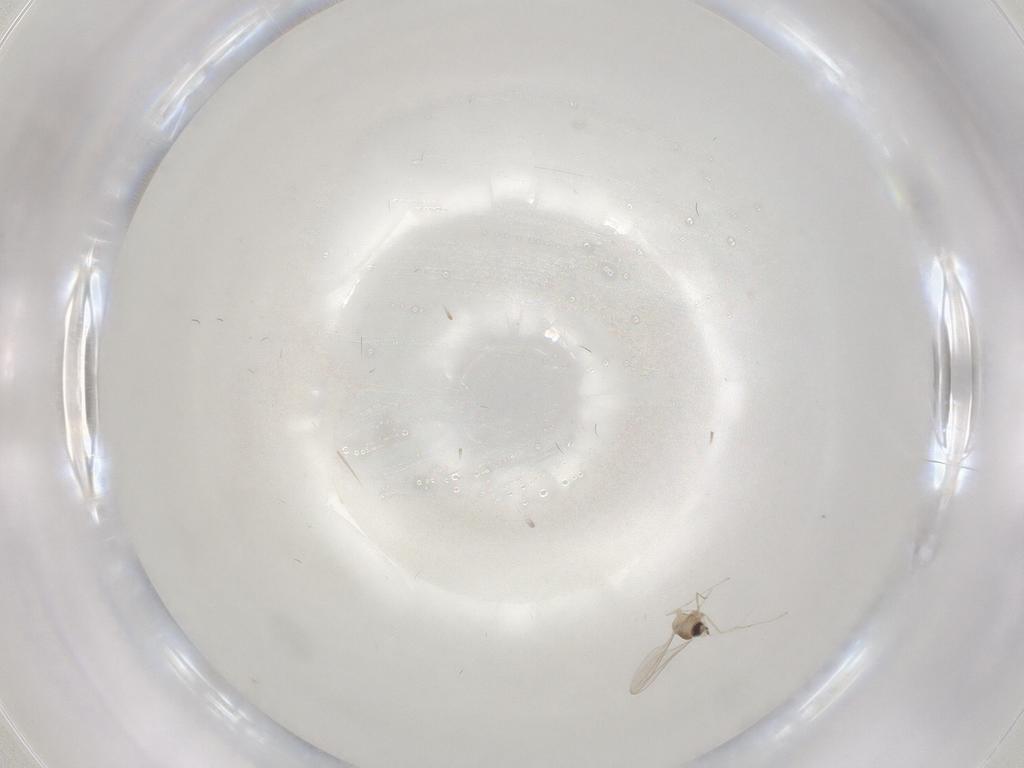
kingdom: Animalia
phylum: Arthropoda
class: Insecta
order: Diptera
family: Cecidomyiidae
